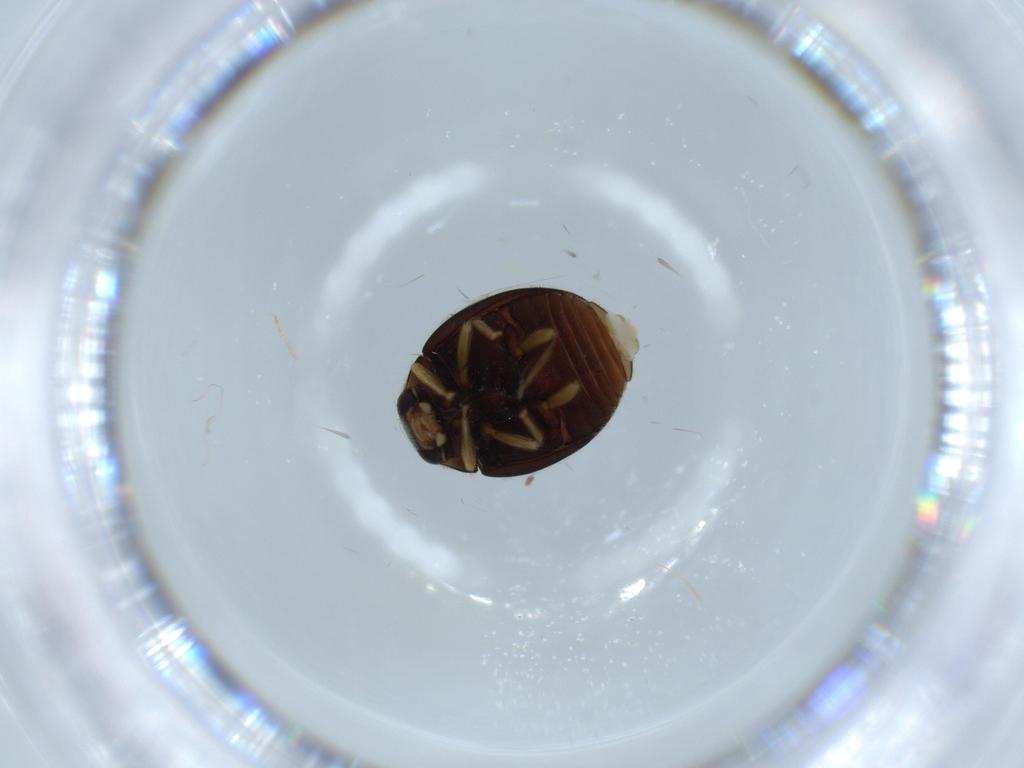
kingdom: Animalia
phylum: Arthropoda
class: Insecta
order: Coleoptera
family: Coccinellidae
